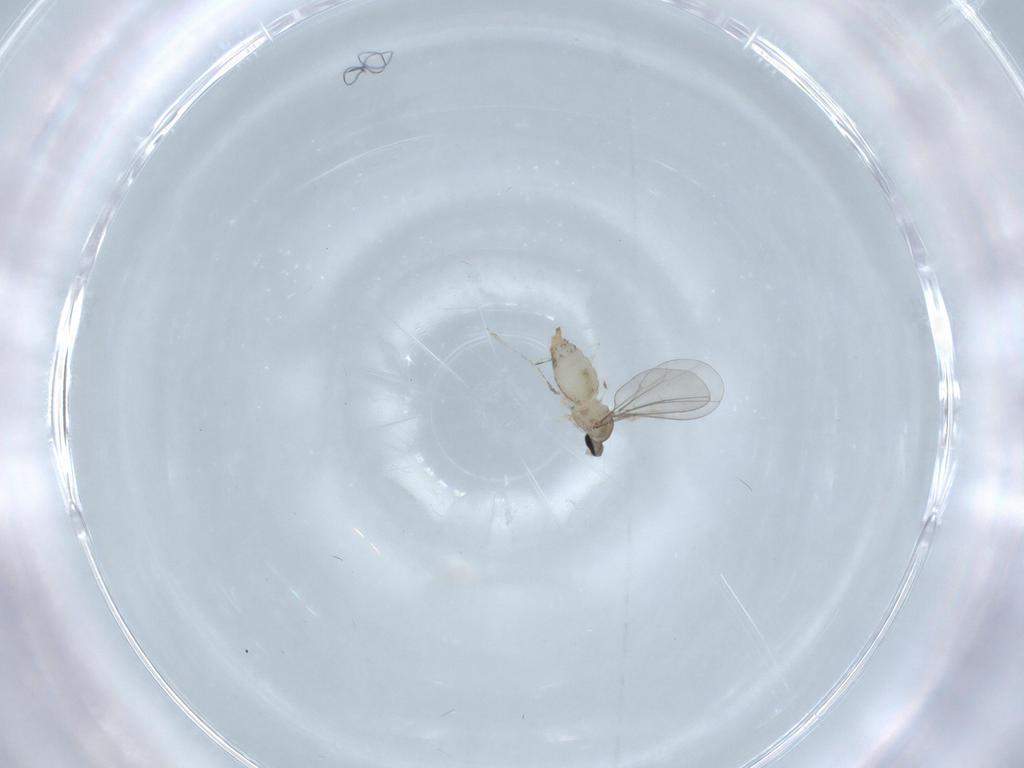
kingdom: Animalia
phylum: Arthropoda
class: Insecta
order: Diptera
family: Cecidomyiidae
